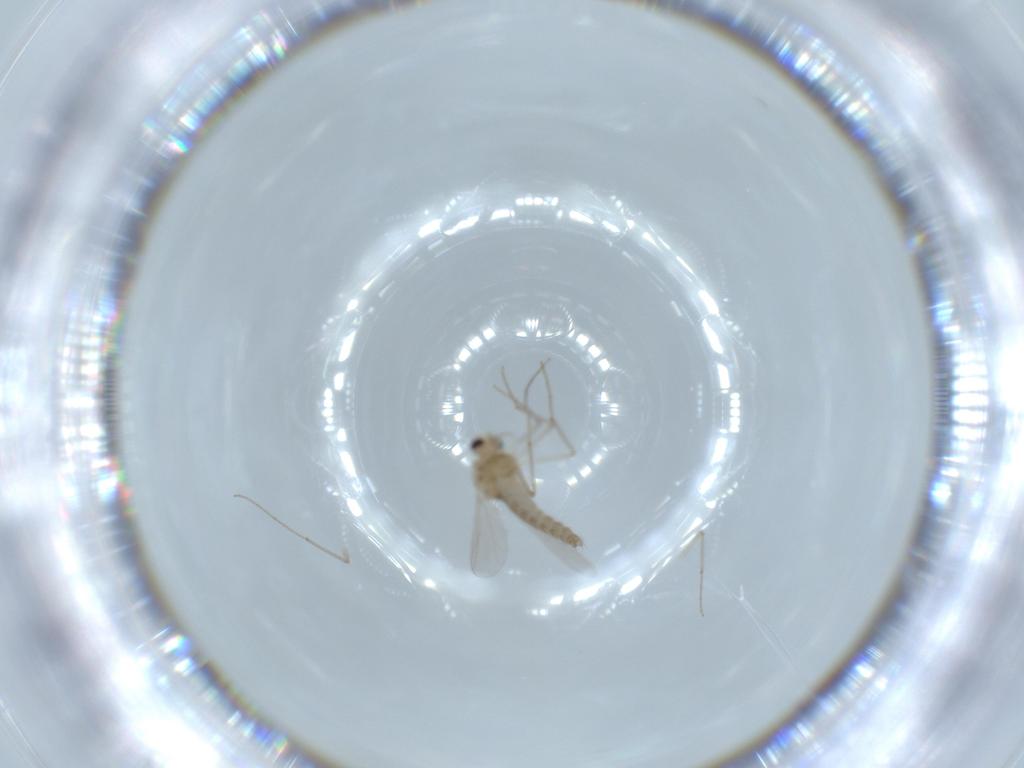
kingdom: Animalia
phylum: Arthropoda
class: Insecta
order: Diptera
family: Chironomidae
